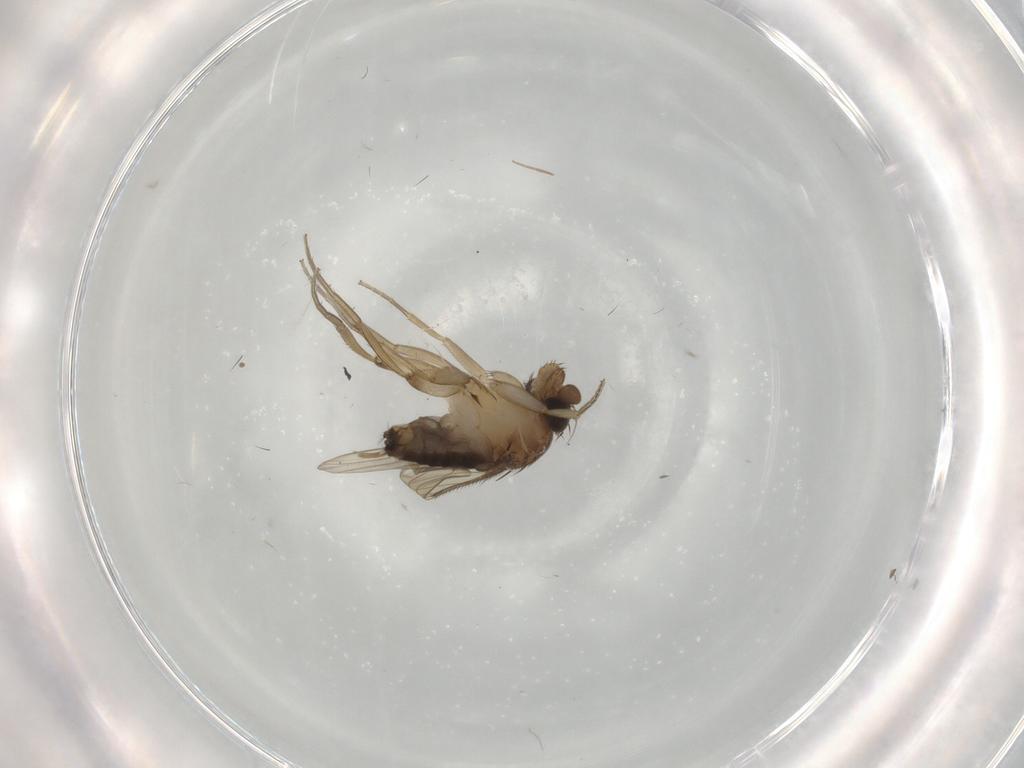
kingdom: Animalia
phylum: Arthropoda
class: Insecta
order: Diptera
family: Phoridae
